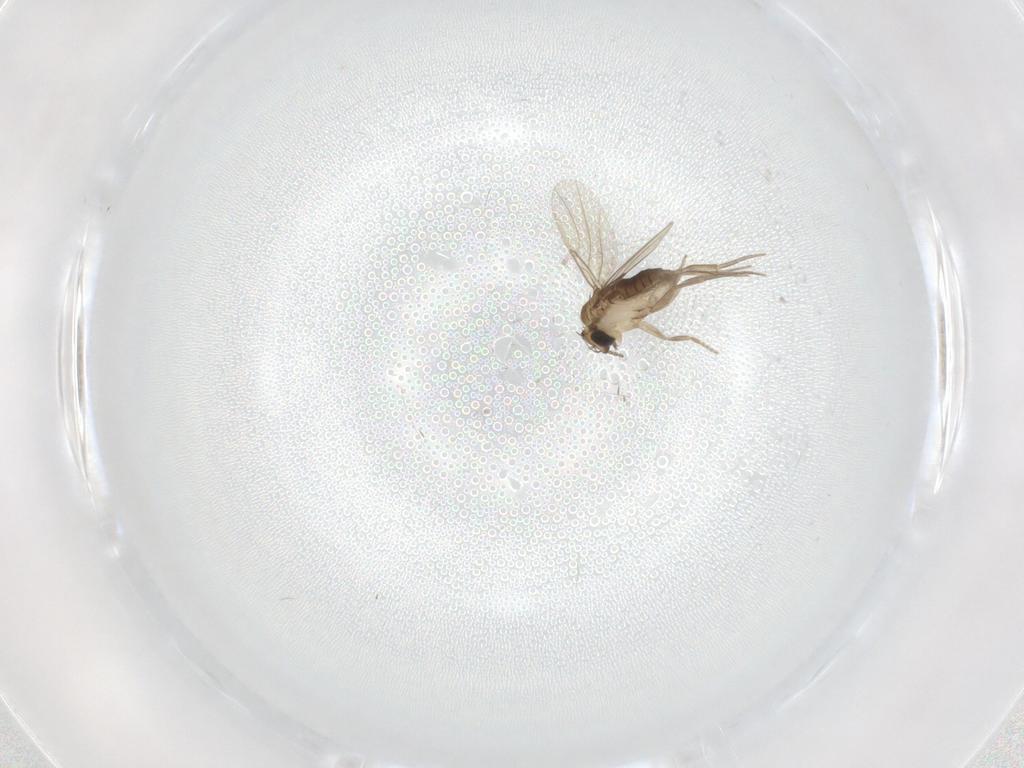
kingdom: Animalia
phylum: Arthropoda
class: Insecta
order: Diptera
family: Cecidomyiidae
